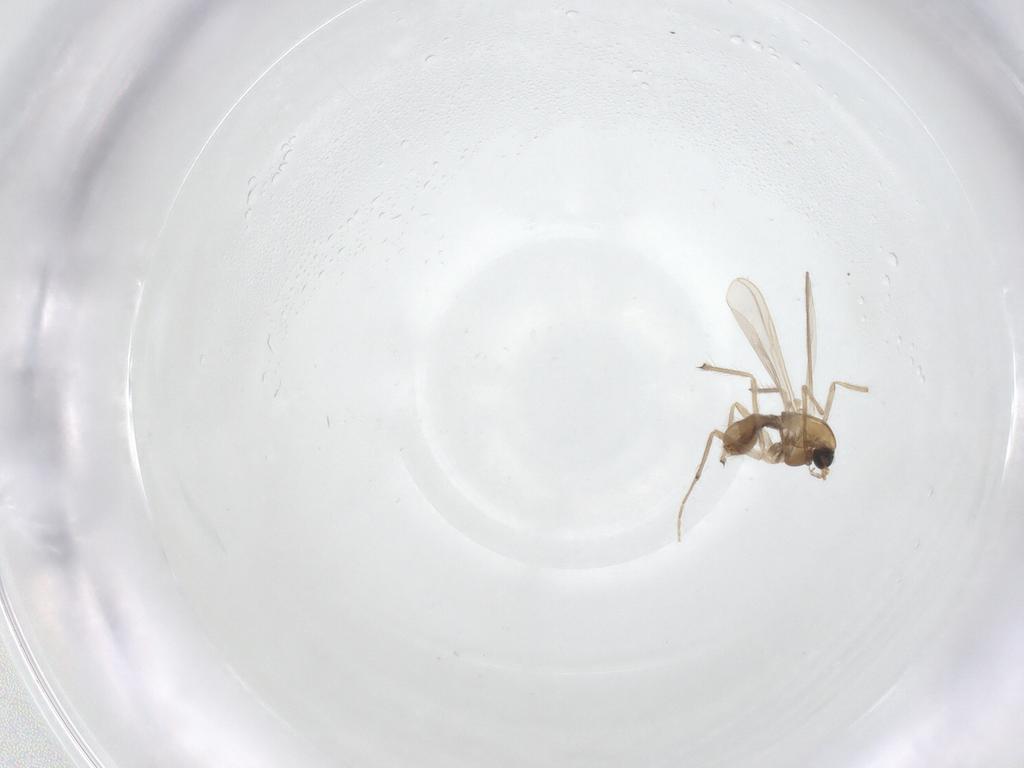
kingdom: Animalia
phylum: Arthropoda
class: Insecta
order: Diptera
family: Chironomidae
